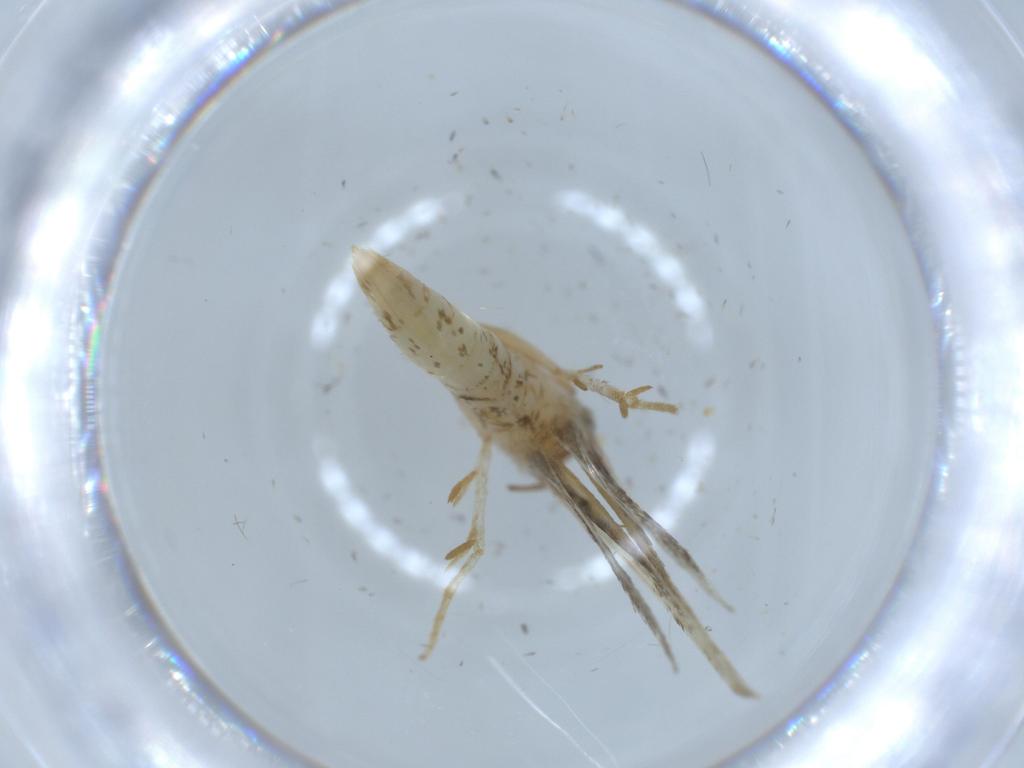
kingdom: Animalia
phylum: Arthropoda
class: Insecta
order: Lepidoptera
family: Tineidae
